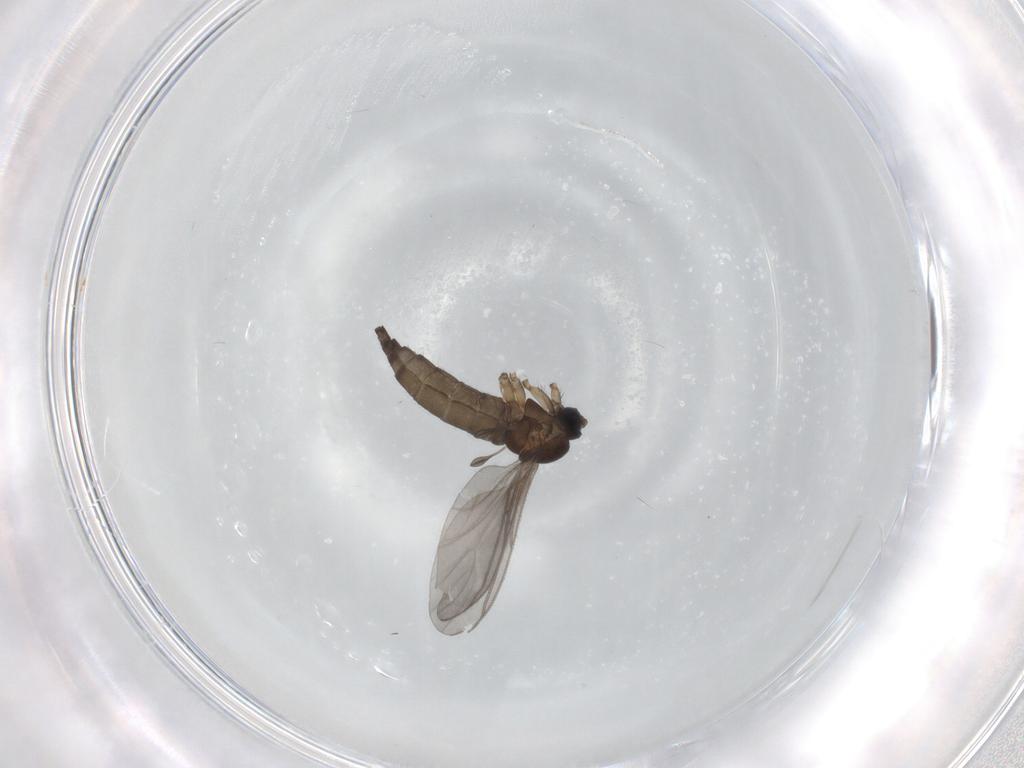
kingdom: Animalia
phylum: Arthropoda
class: Insecta
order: Diptera
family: Sciaridae
